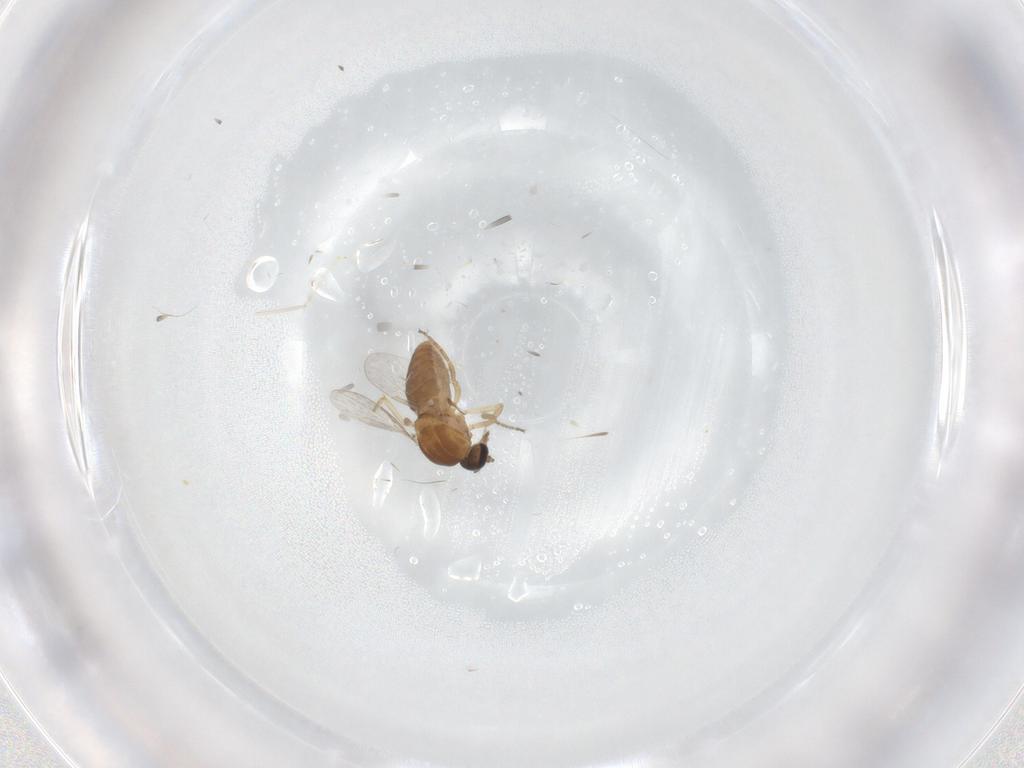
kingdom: Animalia
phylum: Arthropoda
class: Insecta
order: Diptera
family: Ceratopogonidae
